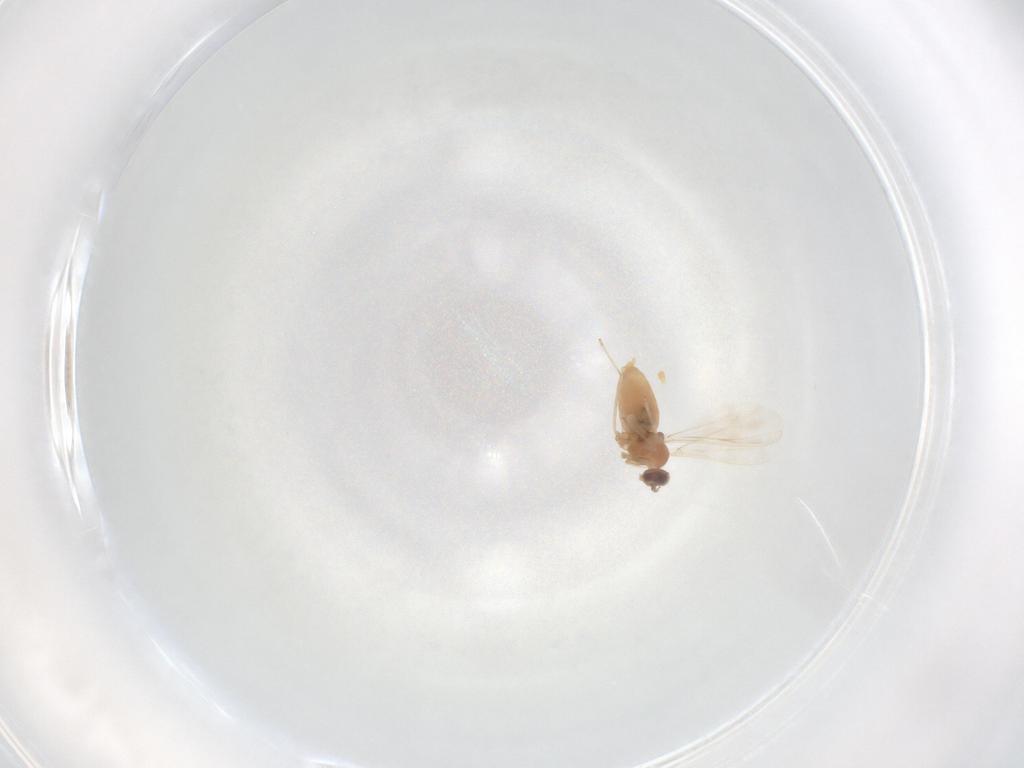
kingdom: Animalia
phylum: Arthropoda
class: Insecta
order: Diptera
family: Cecidomyiidae
